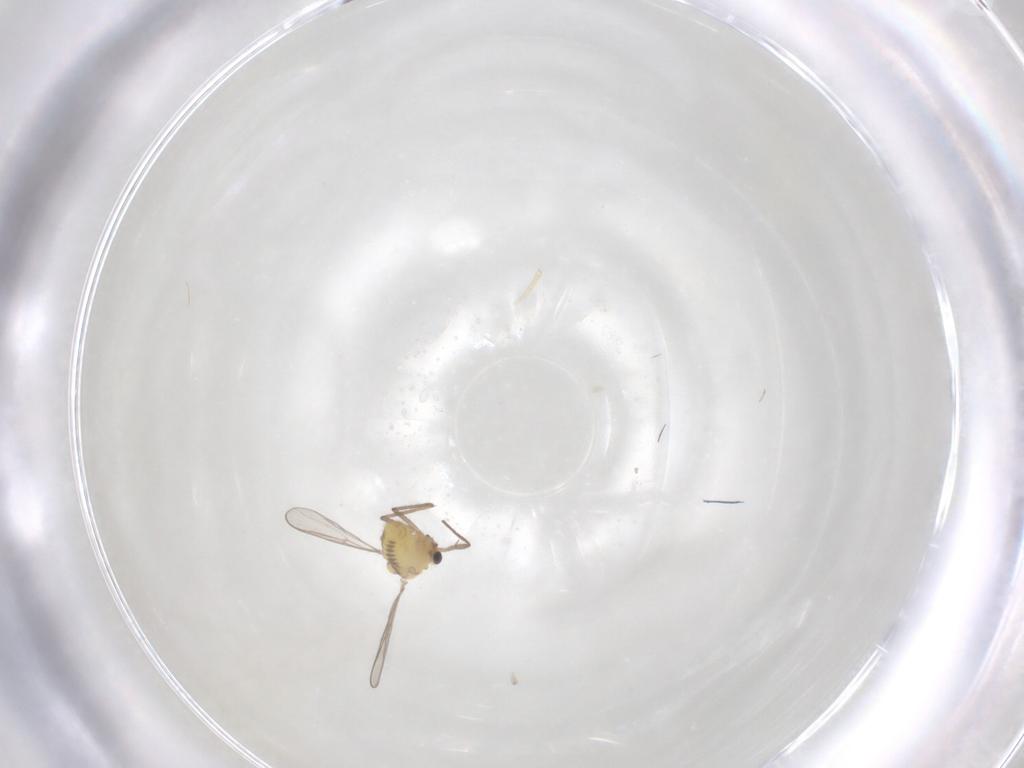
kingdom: Animalia
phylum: Arthropoda
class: Insecta
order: Diptera
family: Chironomidae
